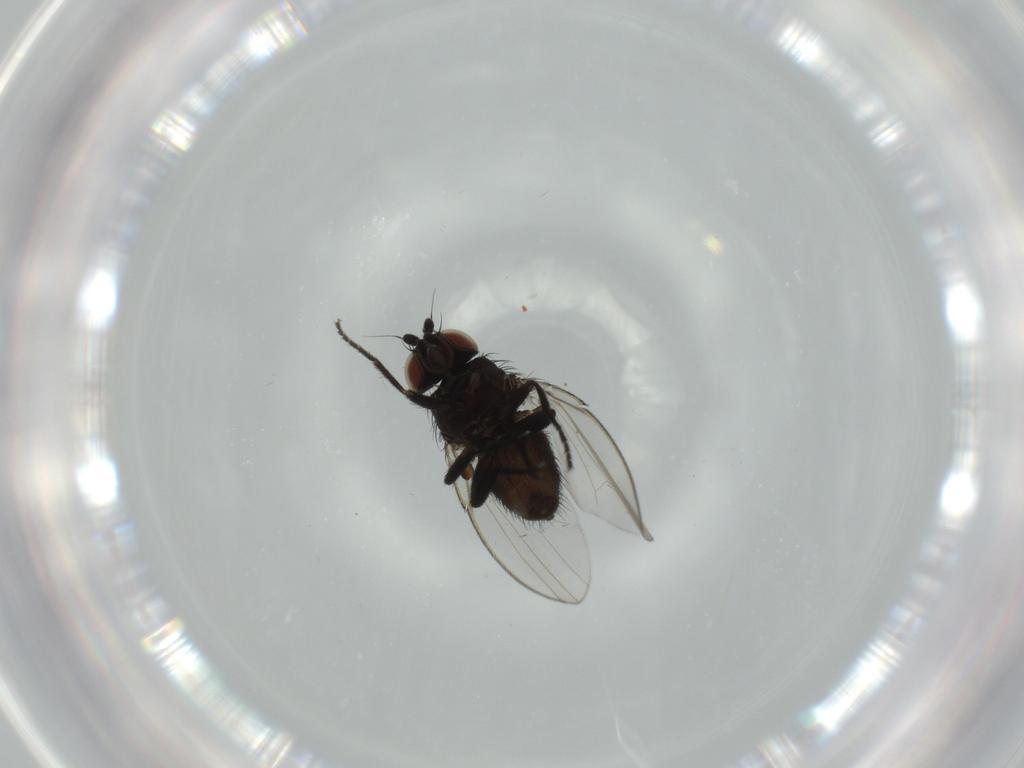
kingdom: Animalia
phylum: Arthropoda
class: Insecta
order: Diptera
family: Milichiidae
